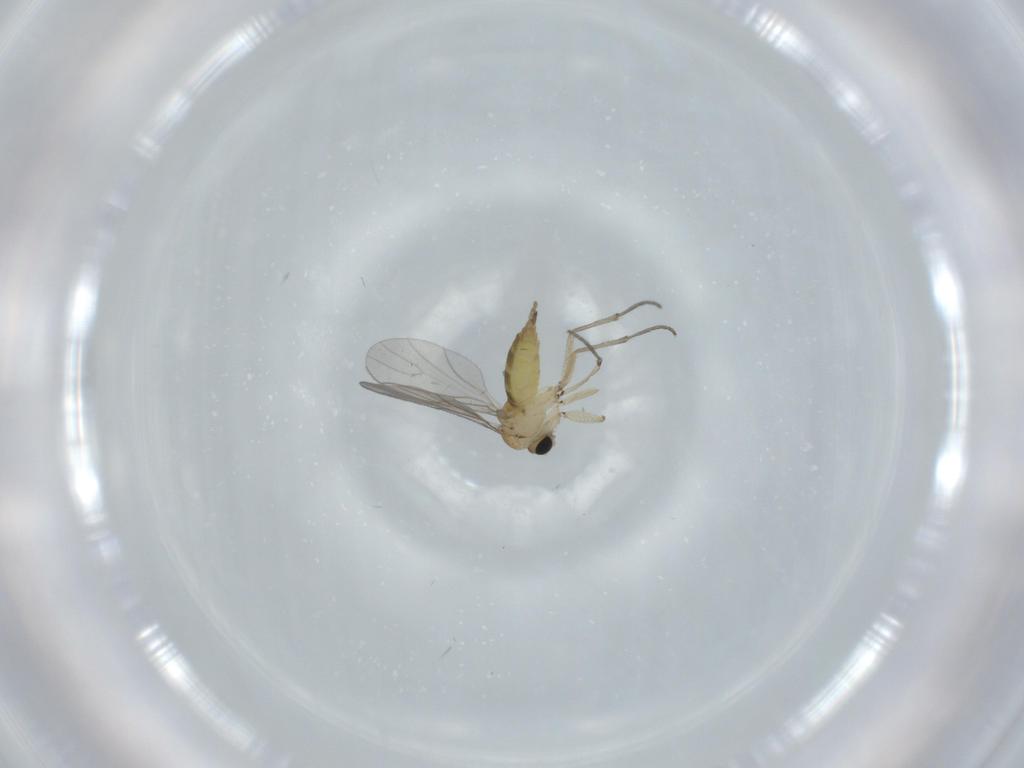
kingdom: Animalia
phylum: Arthropoda
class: Insecta
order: Diptera
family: Sciaridae
